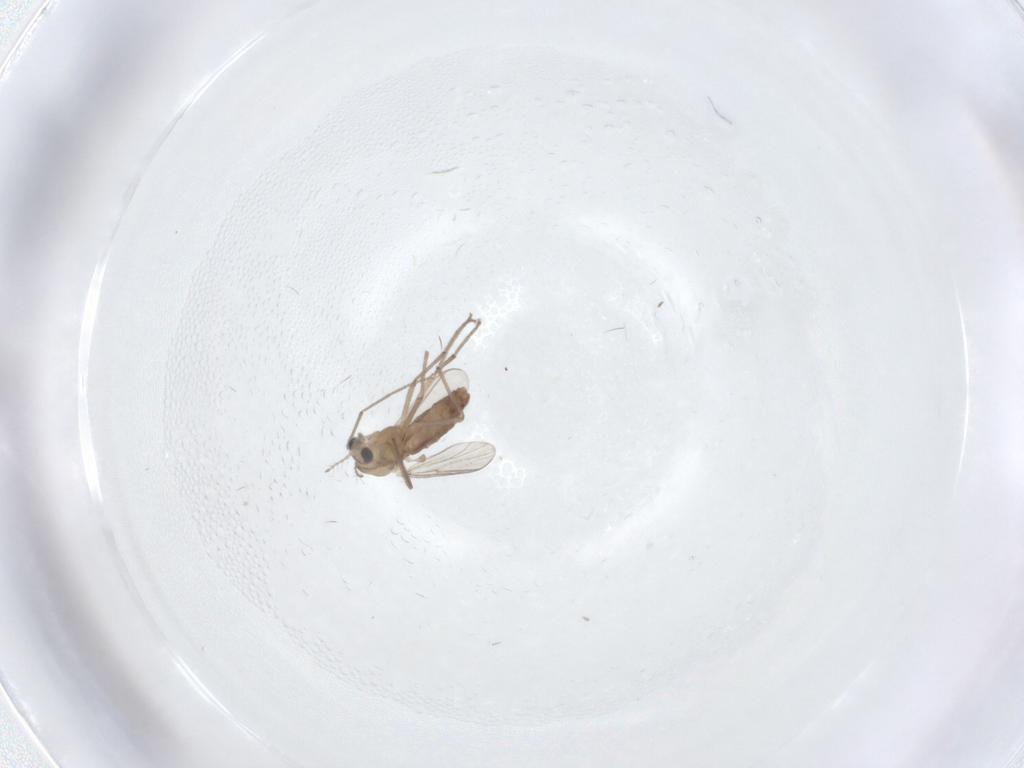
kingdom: Animalia
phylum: Arthropoda
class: Insecta
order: Diptera
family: Chironomidae
